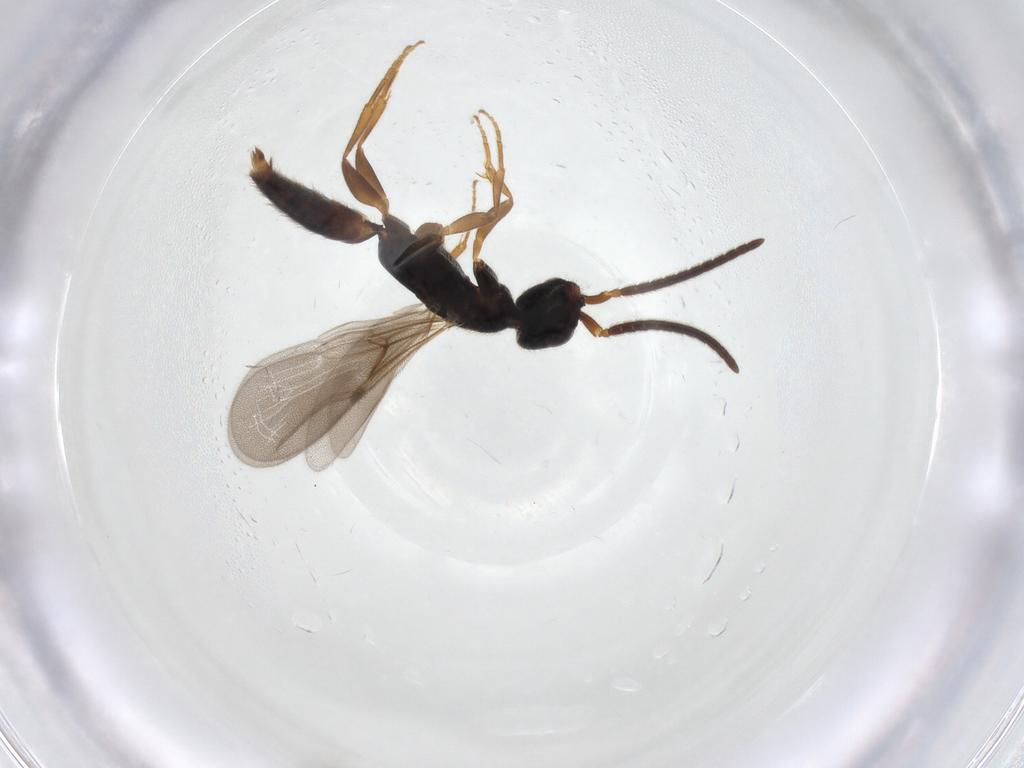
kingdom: Animalia
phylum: Arthropoda
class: Insecta
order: Hymenoptera
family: Bethylidae
